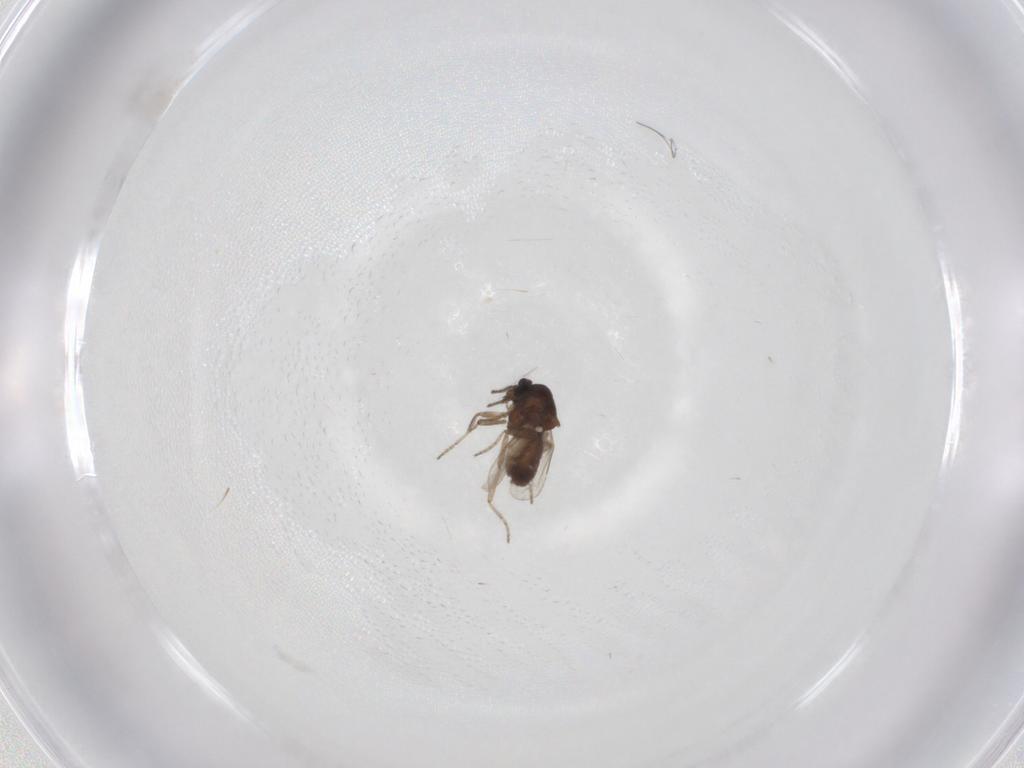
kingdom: Animalia
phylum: Arthropoda
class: Insecta
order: Diptera
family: Ceratopogonidae
